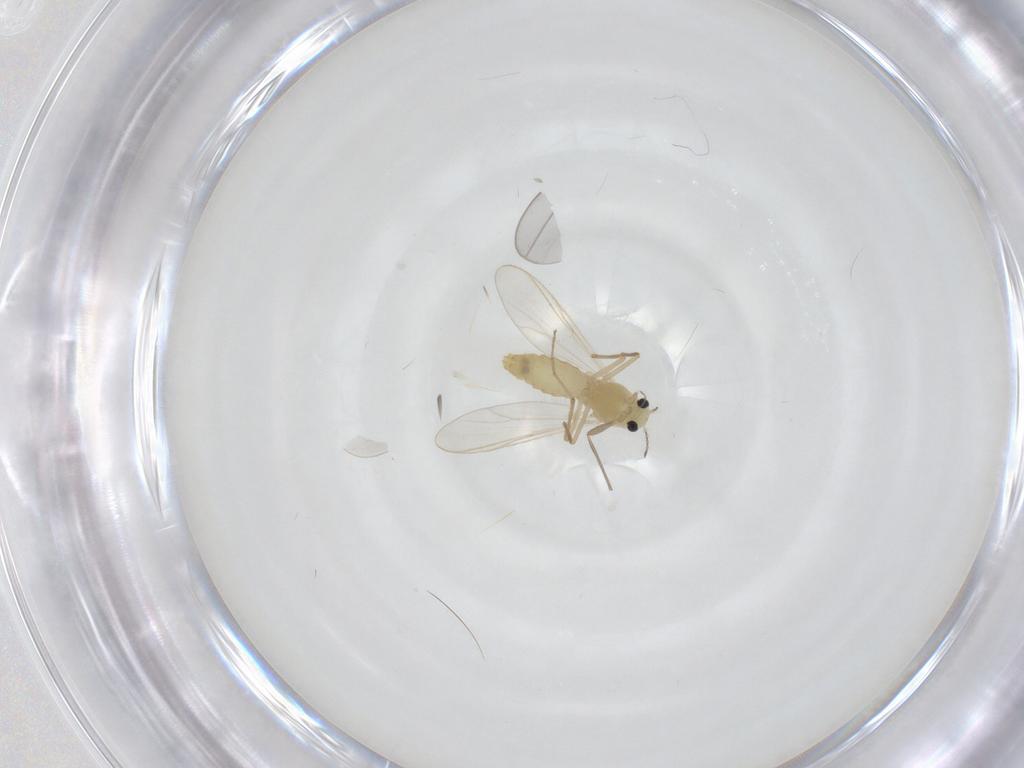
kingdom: Animalia
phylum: Arthropoda
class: Insecta
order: Diptera
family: Chironomidae
